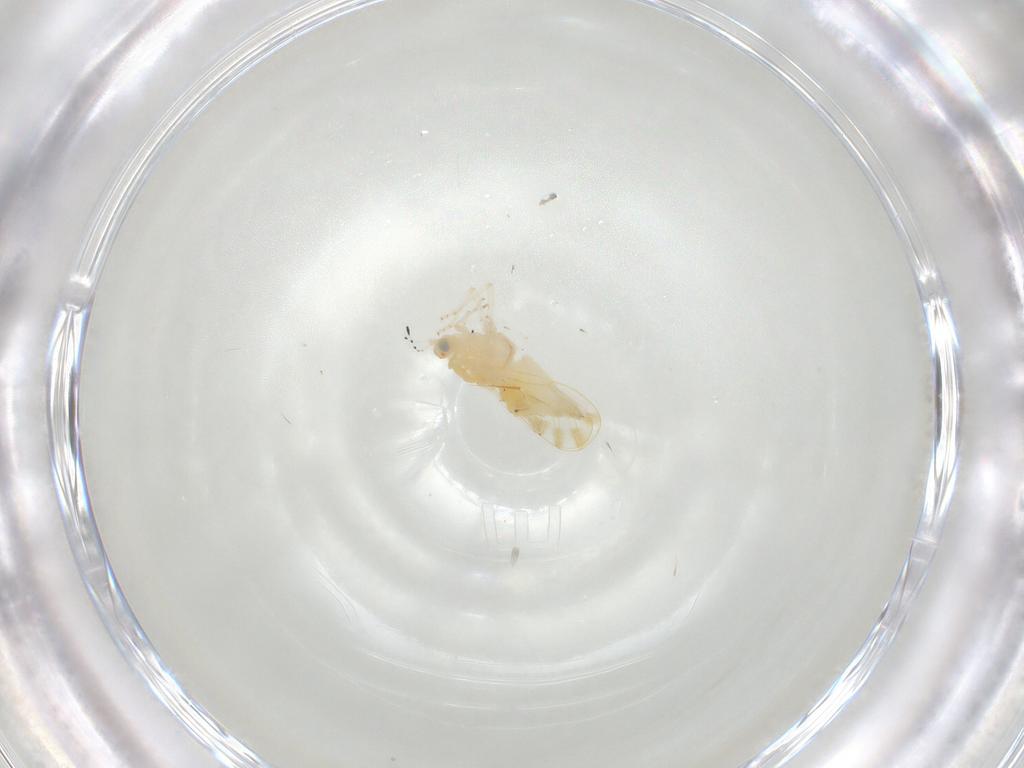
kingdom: Animalia
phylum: Arthropoda
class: Insecta
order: Hemiptera
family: Aphalaridae
